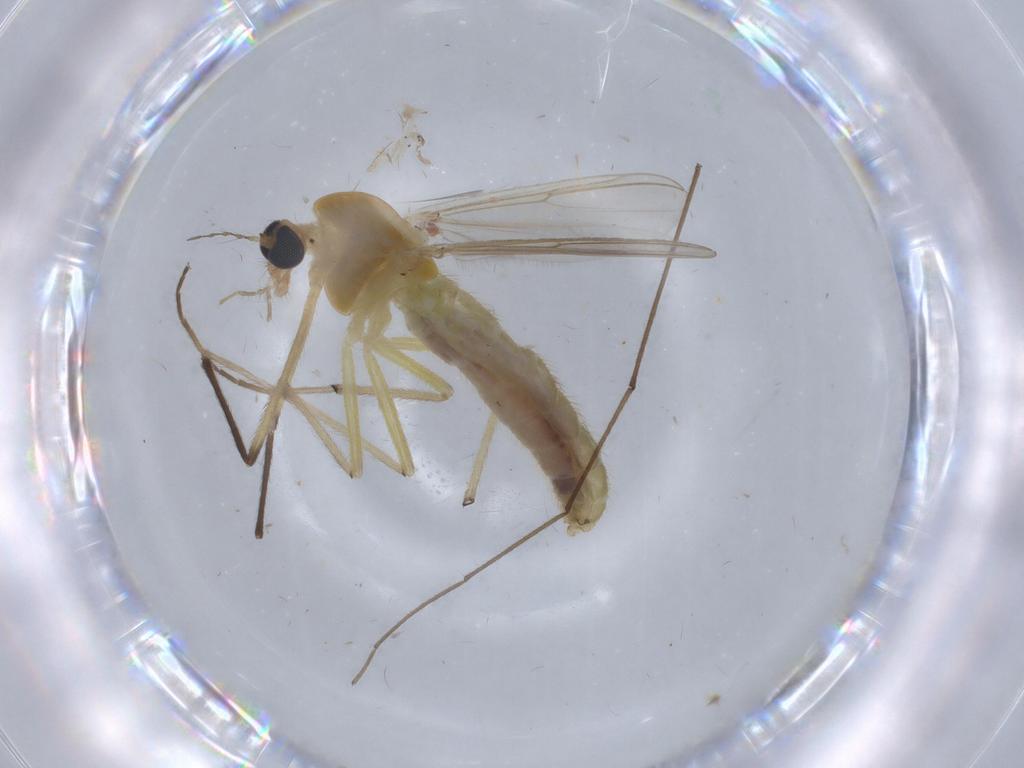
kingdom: Animalia
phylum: Arthropoda
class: Insecta
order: Diptera
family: Chironomidae
